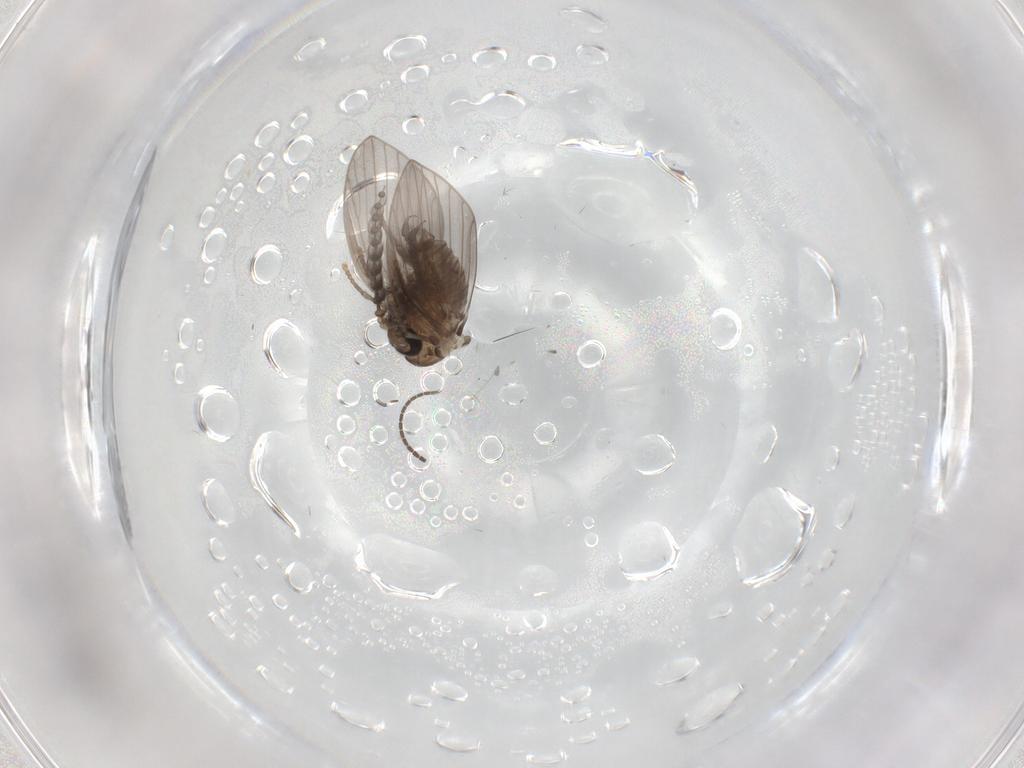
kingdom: Animalia
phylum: Arthropoda
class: Insecta
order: Diptera
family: Psychodidae
